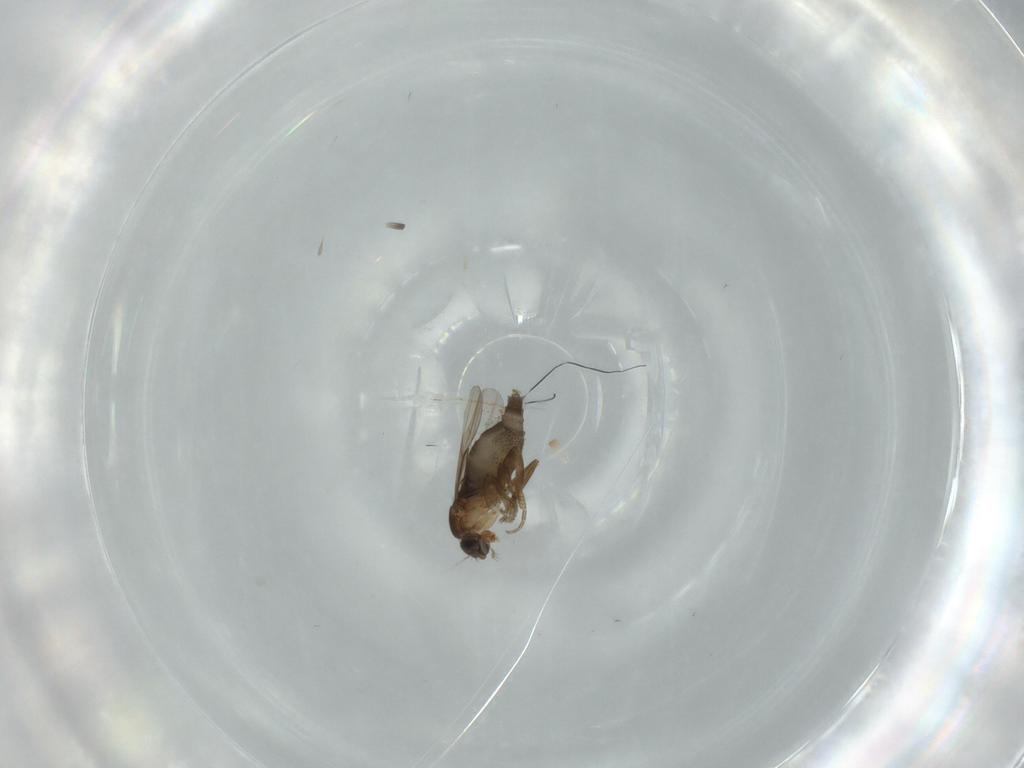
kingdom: Animalia
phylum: Arthropoda
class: Insecta
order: Diptera
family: Phoridae
